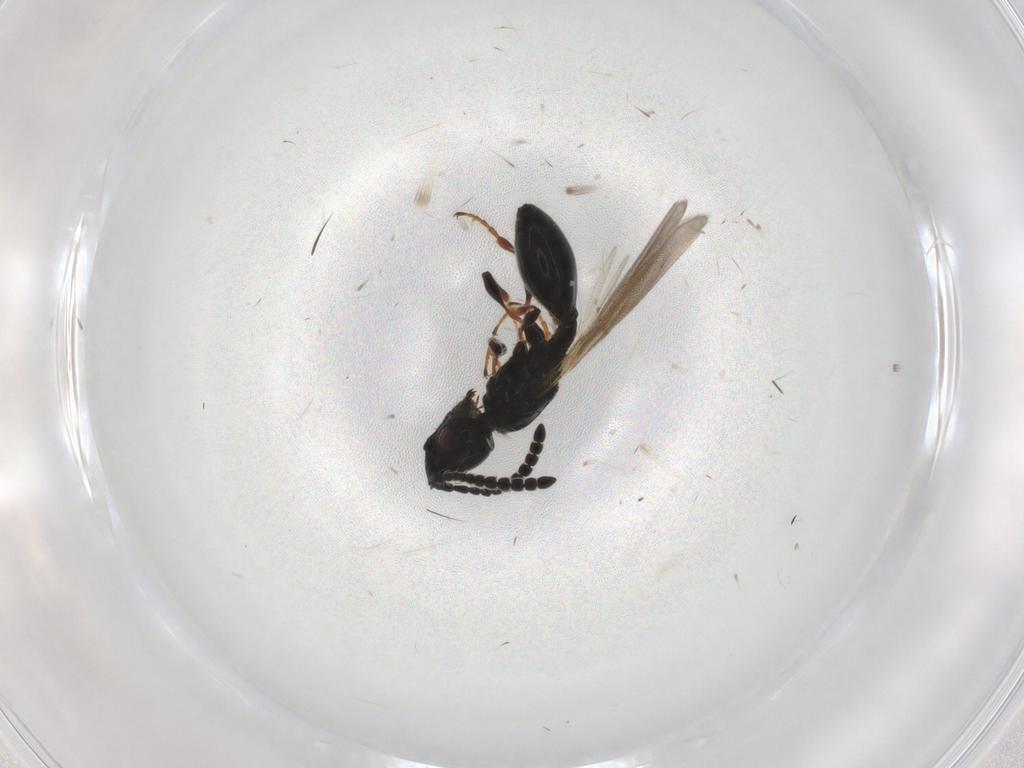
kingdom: Animalia
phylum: Arthropoda
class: Insecta
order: Hymenoptera
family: Diapriidae
